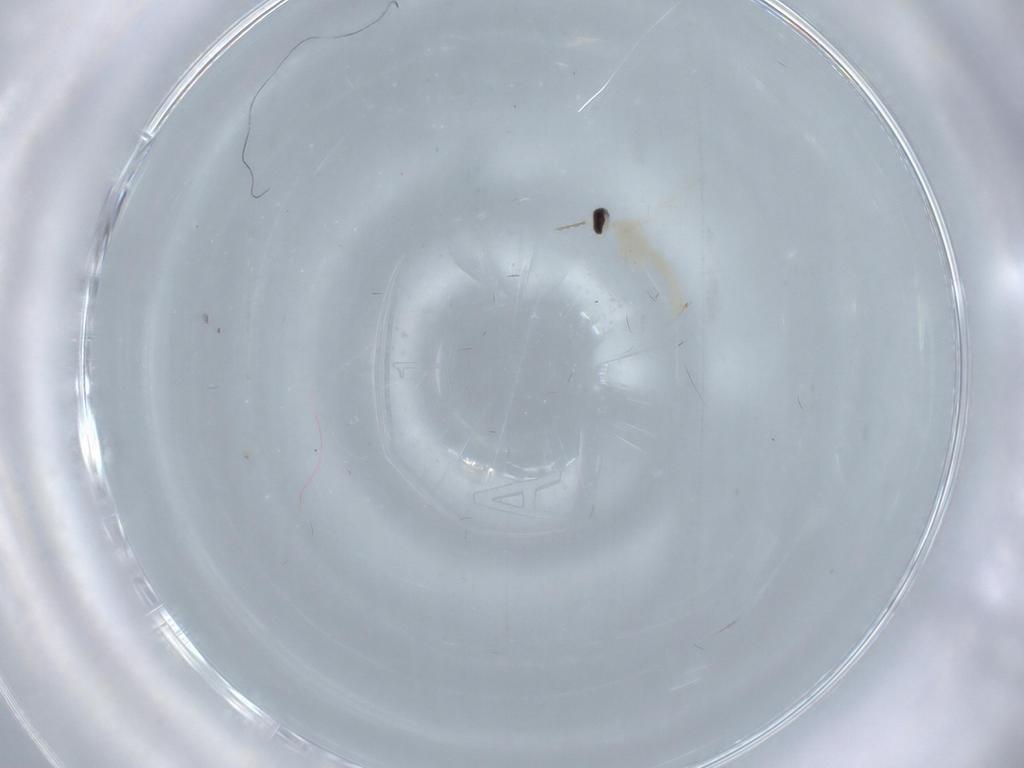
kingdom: Animalia
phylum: Arthropoda
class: Insecta
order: Diptera
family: Cecidomyiidae
